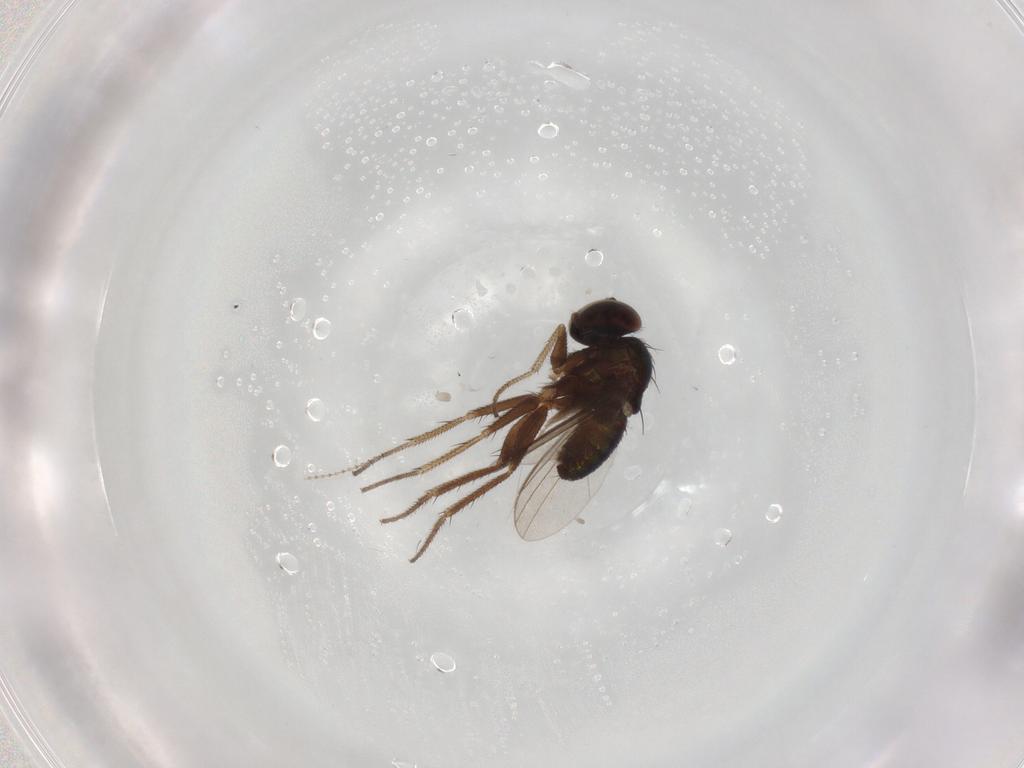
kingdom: Animalia
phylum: Arthropoda
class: Insecta
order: Diptera
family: Ceratopogonidae
